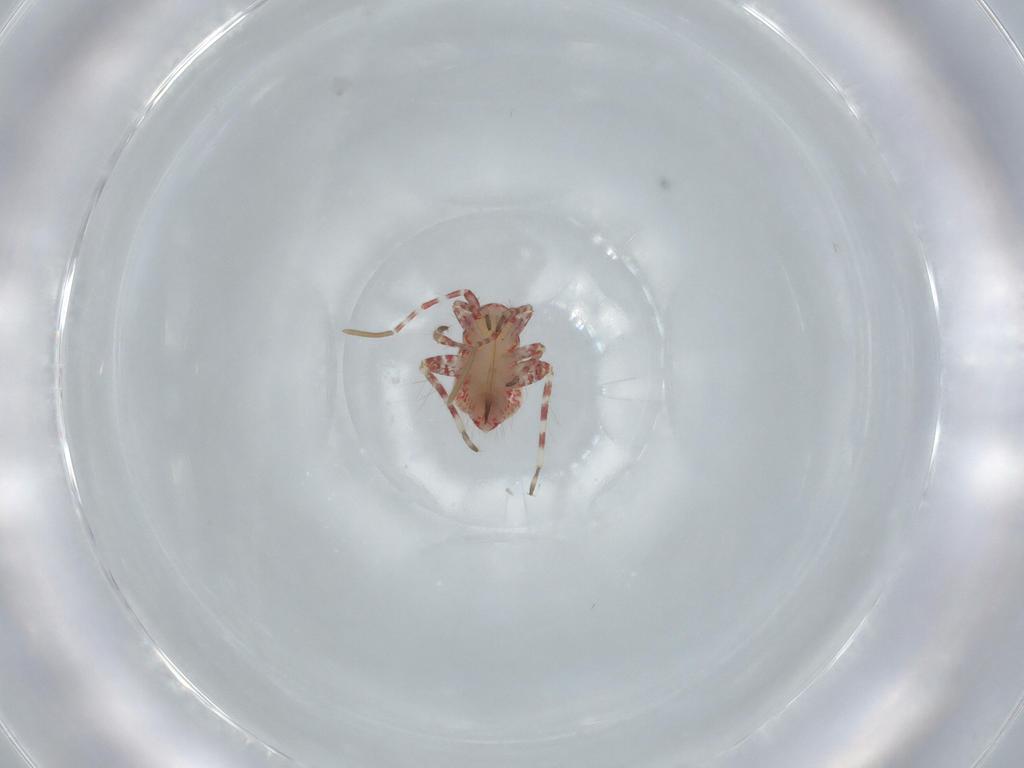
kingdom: Animalia
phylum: Arthropoda
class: Insecta
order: Hemiptera
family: Miridae
